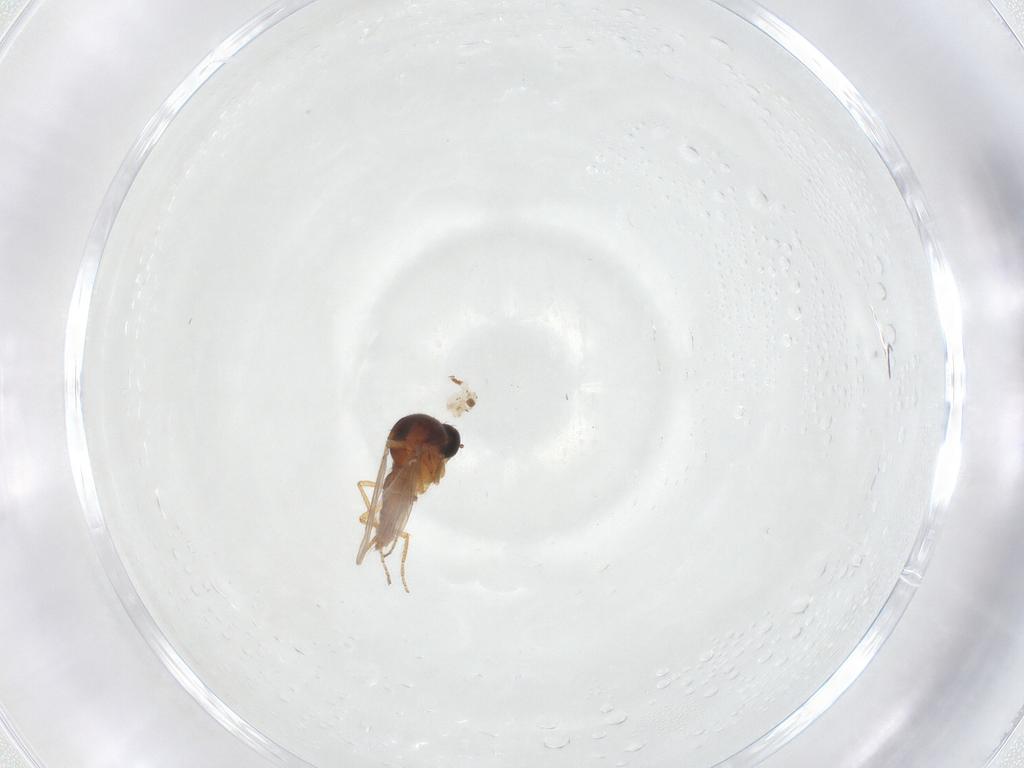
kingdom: Animalia
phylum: Arthropoda
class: Insecta
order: Diptera
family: Ceratopogonidae
